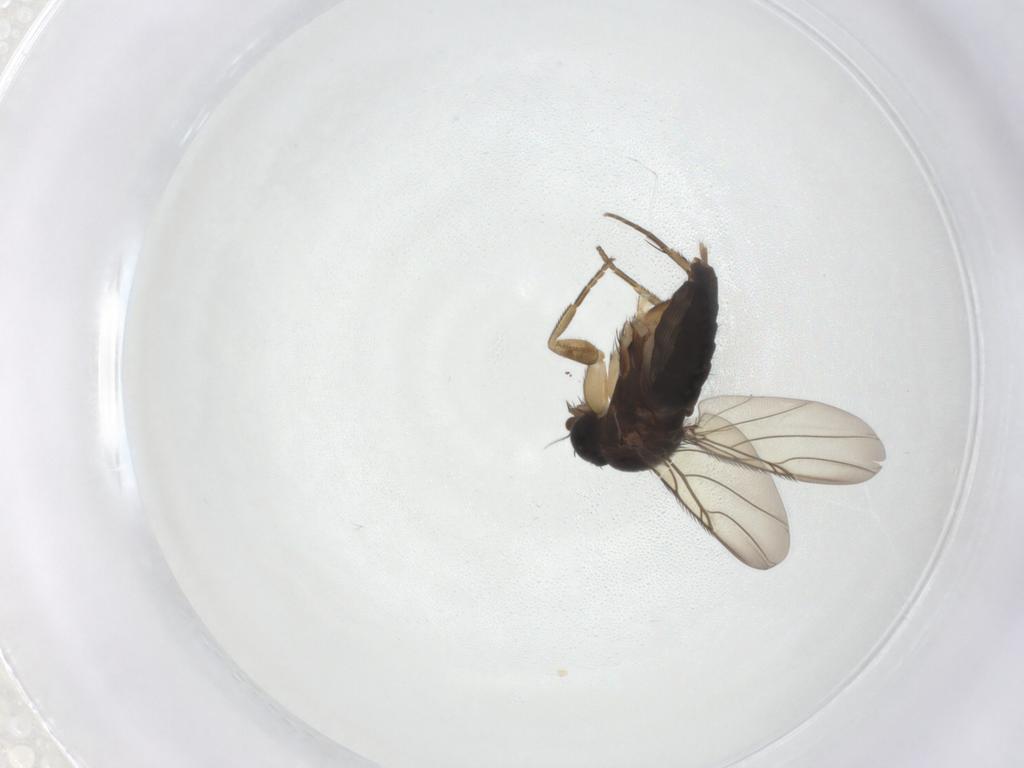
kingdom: Animalia
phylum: Arthropoda
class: Insecta
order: Diptera
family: Phoridae
